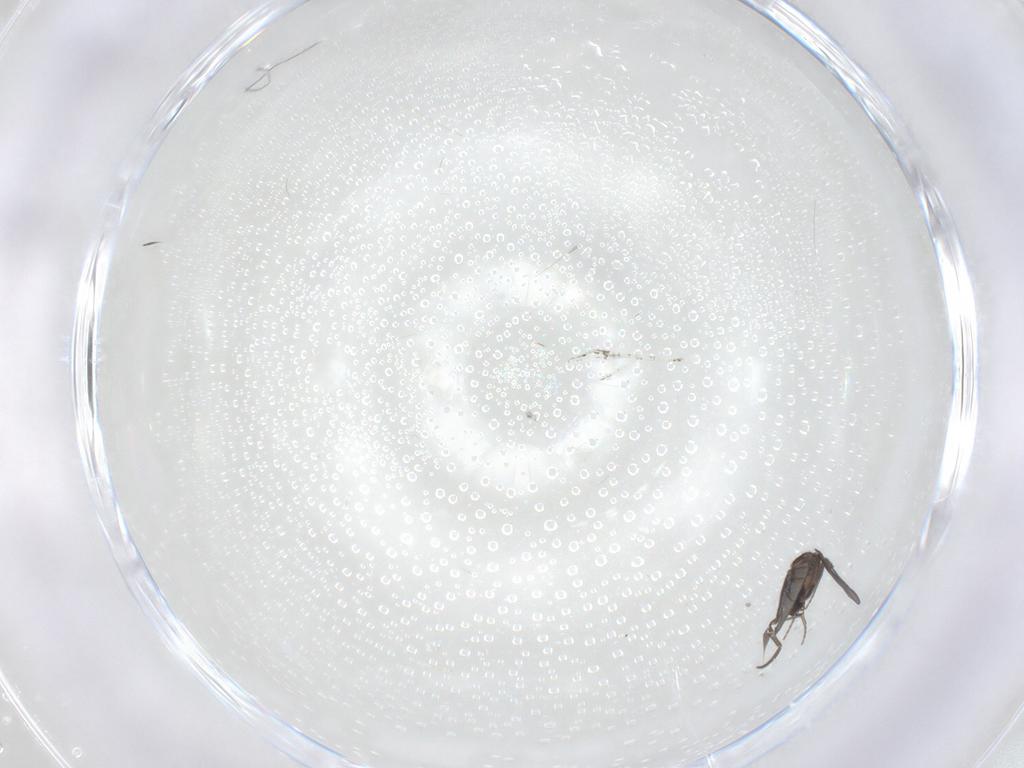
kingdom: Animalia
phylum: Arthropoda
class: Insecta
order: Diptera
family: Phoridae
